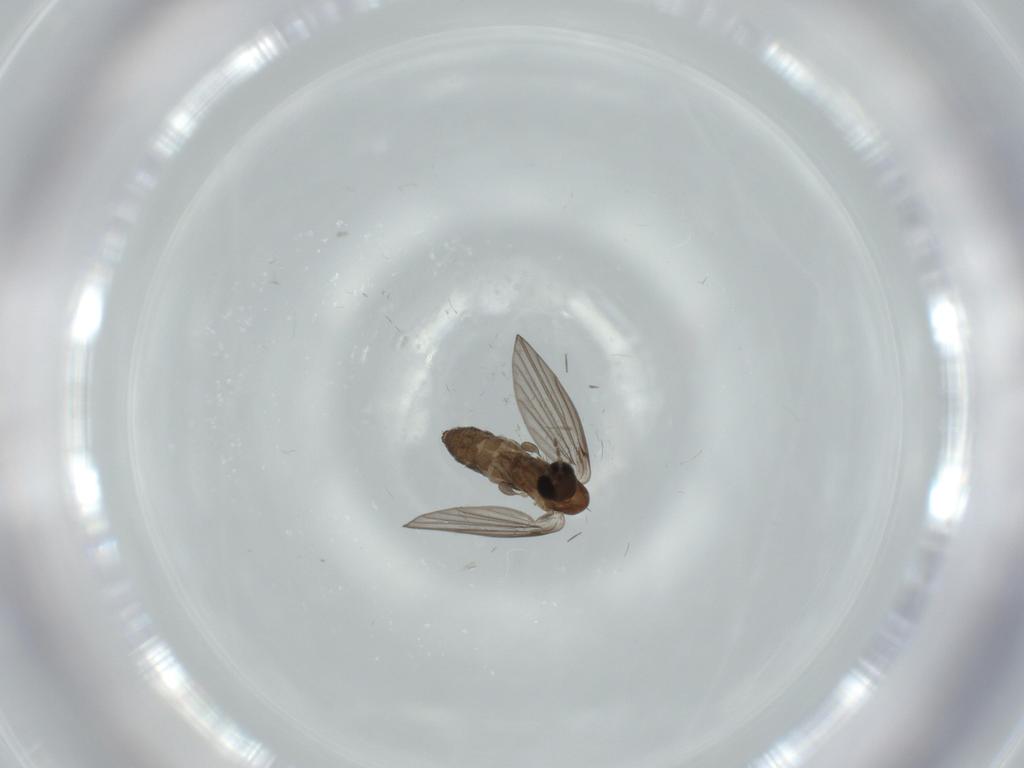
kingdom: Animalia
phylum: Arthropoda
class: Insecta
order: Diptera
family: Psychodidae
